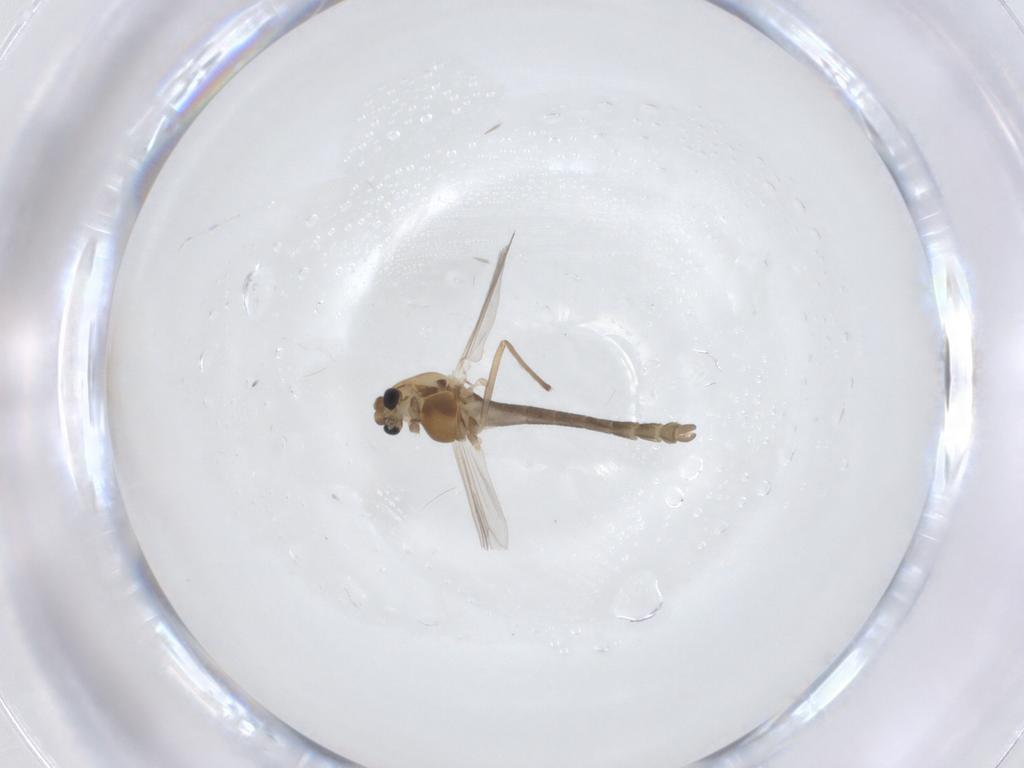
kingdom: Animalia
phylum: Arthropoda
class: Insecta
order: Diptera
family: Chironomidae
